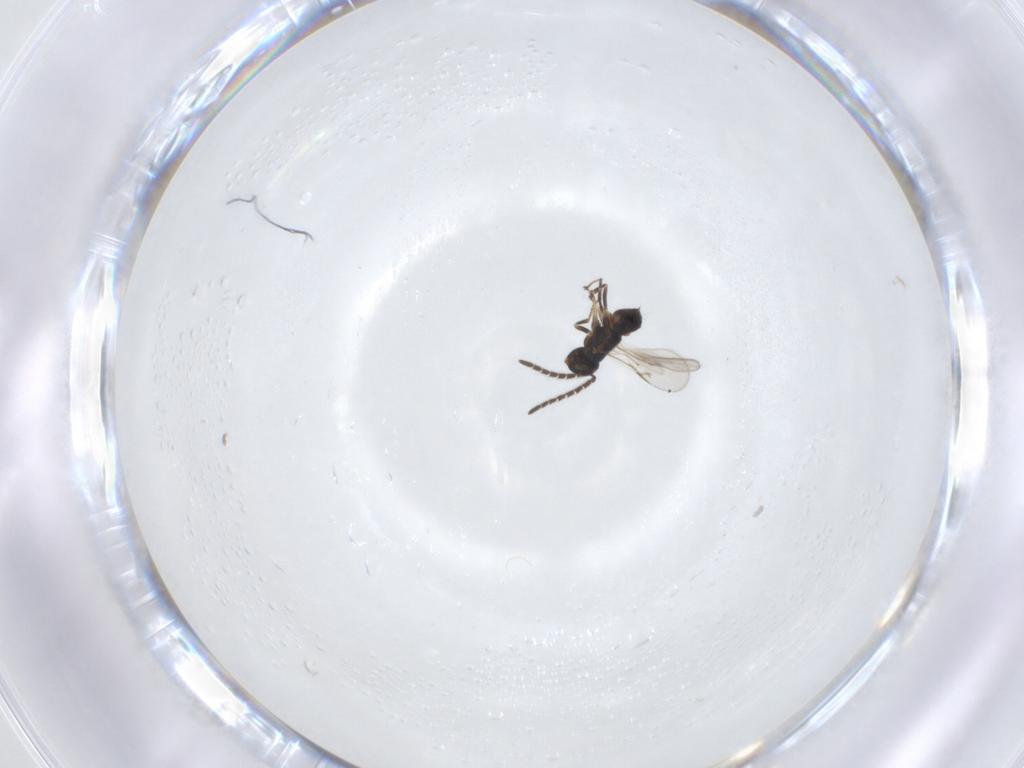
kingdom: Animalia
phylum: Arthropoda
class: Insecta
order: Hymenoptera
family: Encyrtidae
